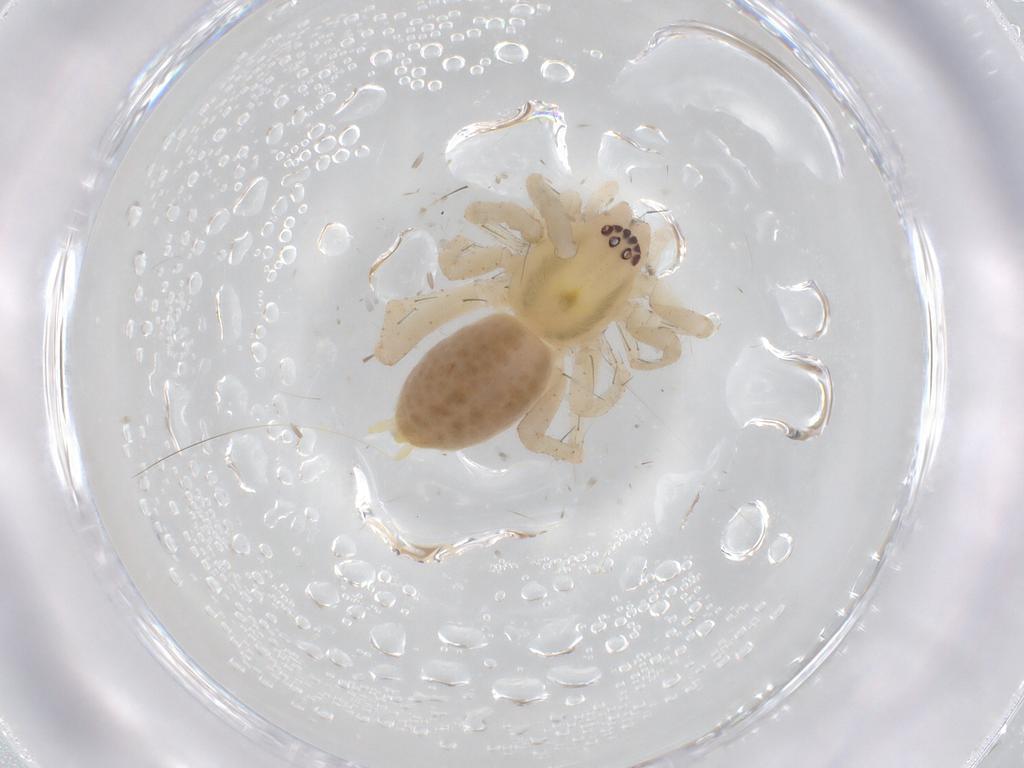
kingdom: Animalia
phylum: Arthropoda
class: Arachnida
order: Araneae
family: Anyphaenidae
